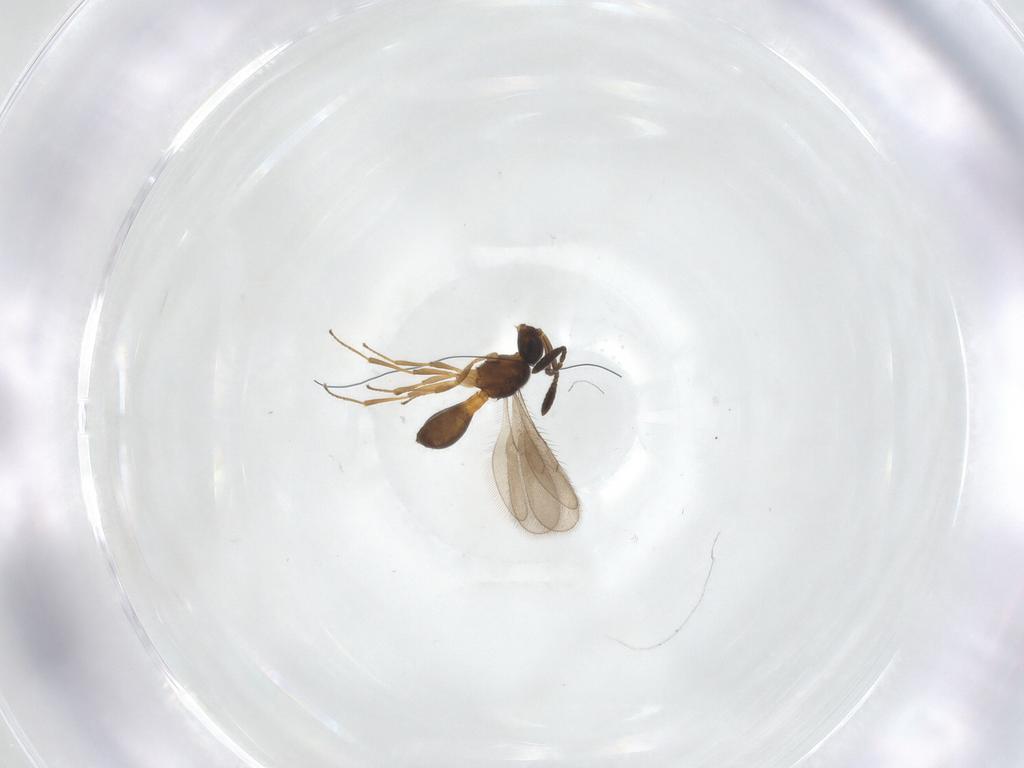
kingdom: Animalia
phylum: Arthropoda
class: Insecta
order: Hymenoptera
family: Scelionidae
